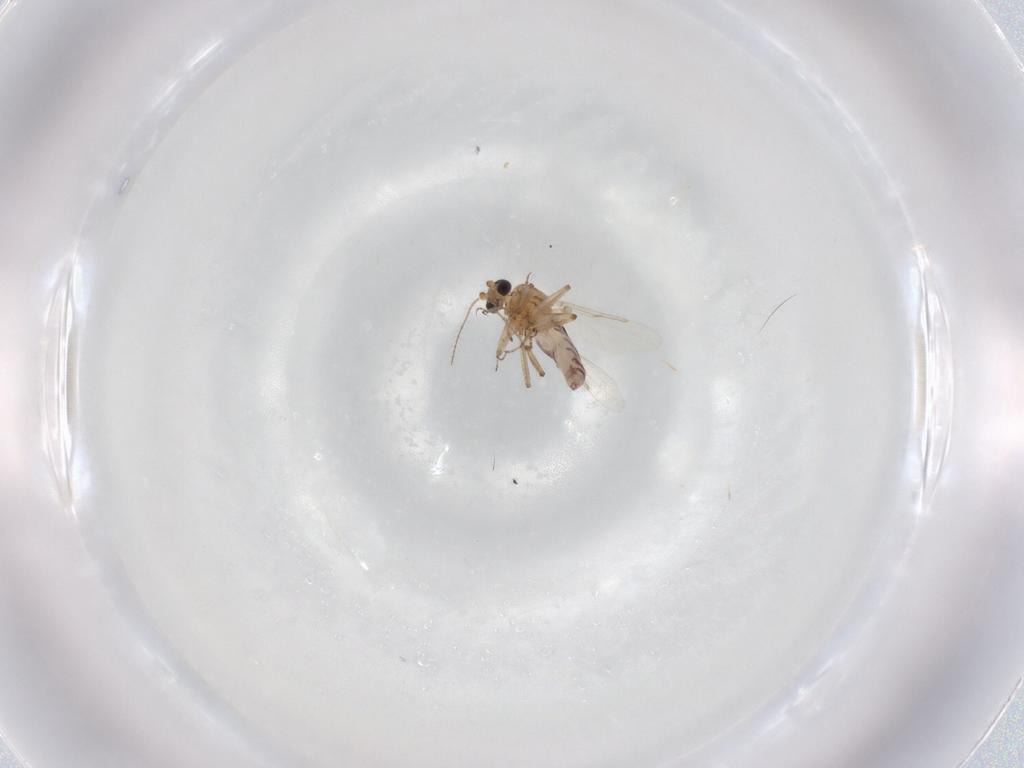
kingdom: Animalia
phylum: Arthropoda
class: Insecta
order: Diptera
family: Ceratopogonidae
